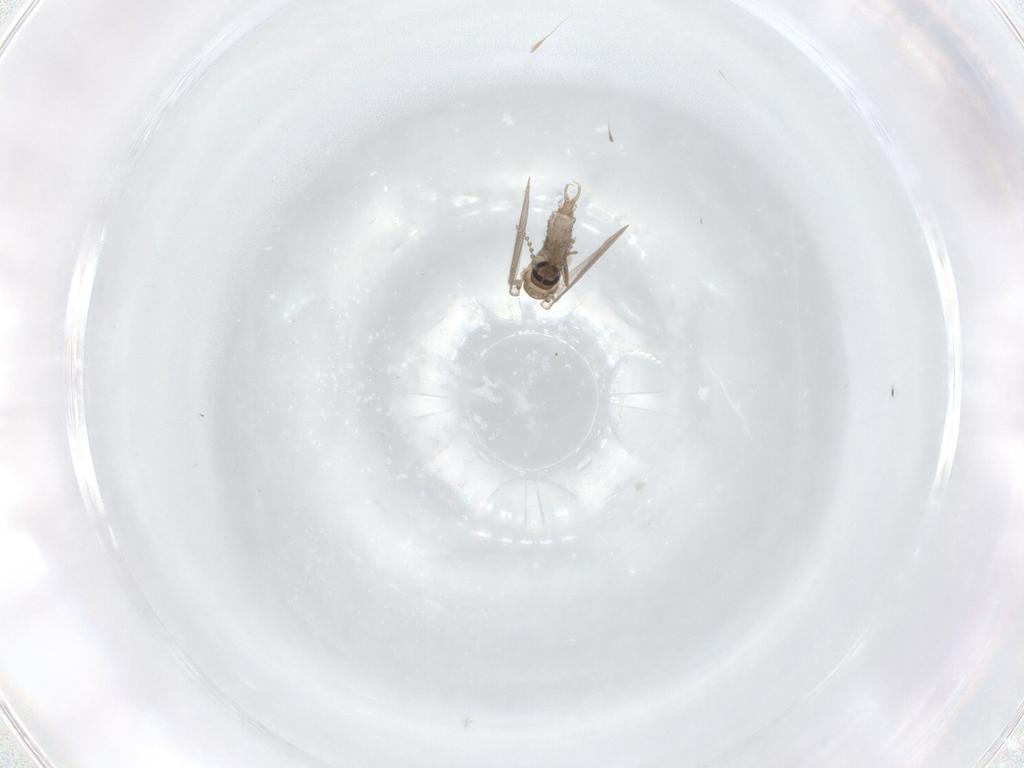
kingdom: Animalia
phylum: Arthropoda
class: Insecta
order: Diptera
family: Psychodidae
